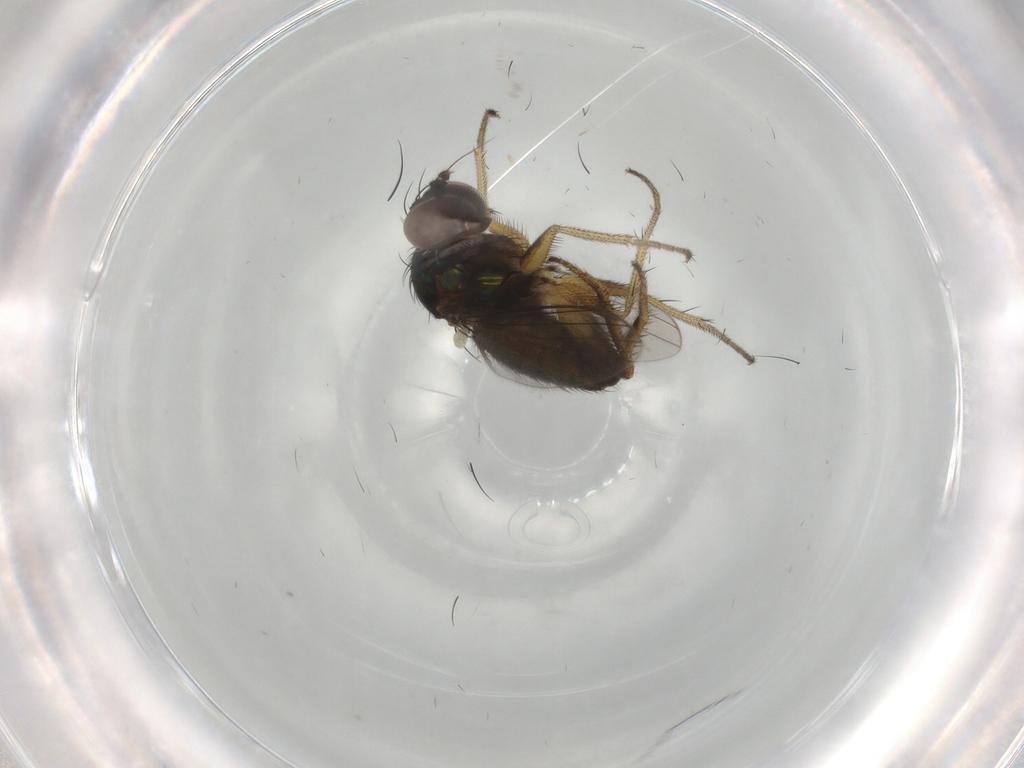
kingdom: Animalia
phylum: Arthropoda
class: Insecta
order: Diptera
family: Dolichopodidae
